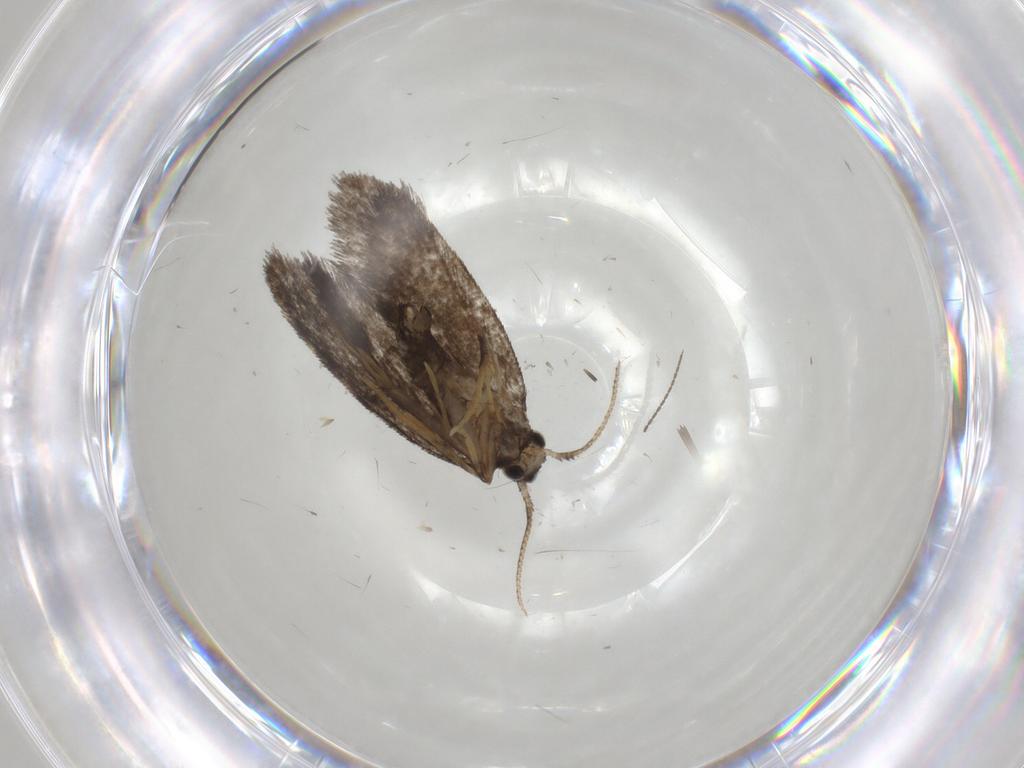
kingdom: Animalia
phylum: Arthropoda
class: Insecta
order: Lepidoptera
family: Psychidae
